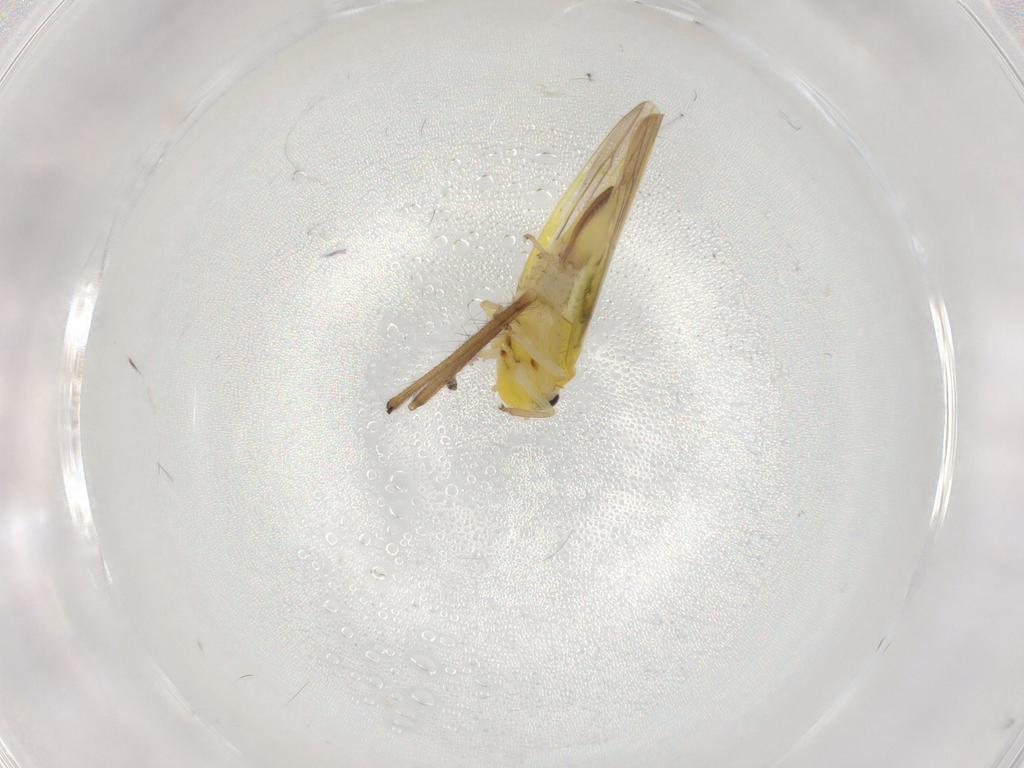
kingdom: Animalia
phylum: Arthropoda
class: Insecta
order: Hemiptera
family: Cicadellidae
